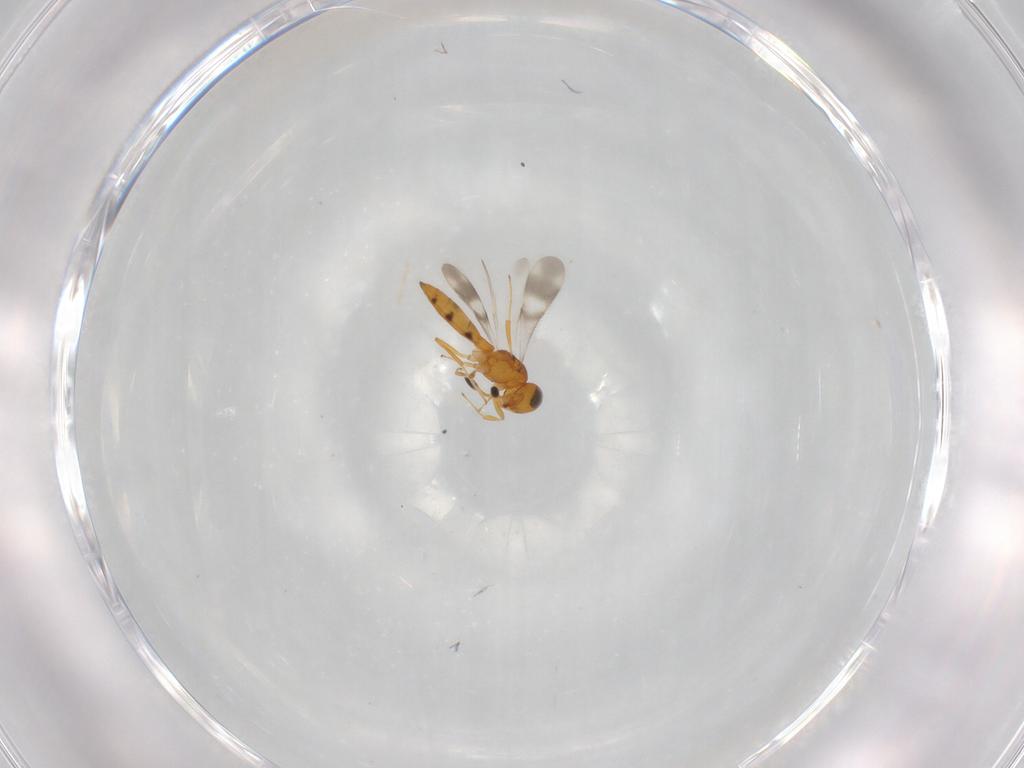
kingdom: Animalia
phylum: Arthropoda
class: Insecta
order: Hymenoptera
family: Scelionidae
